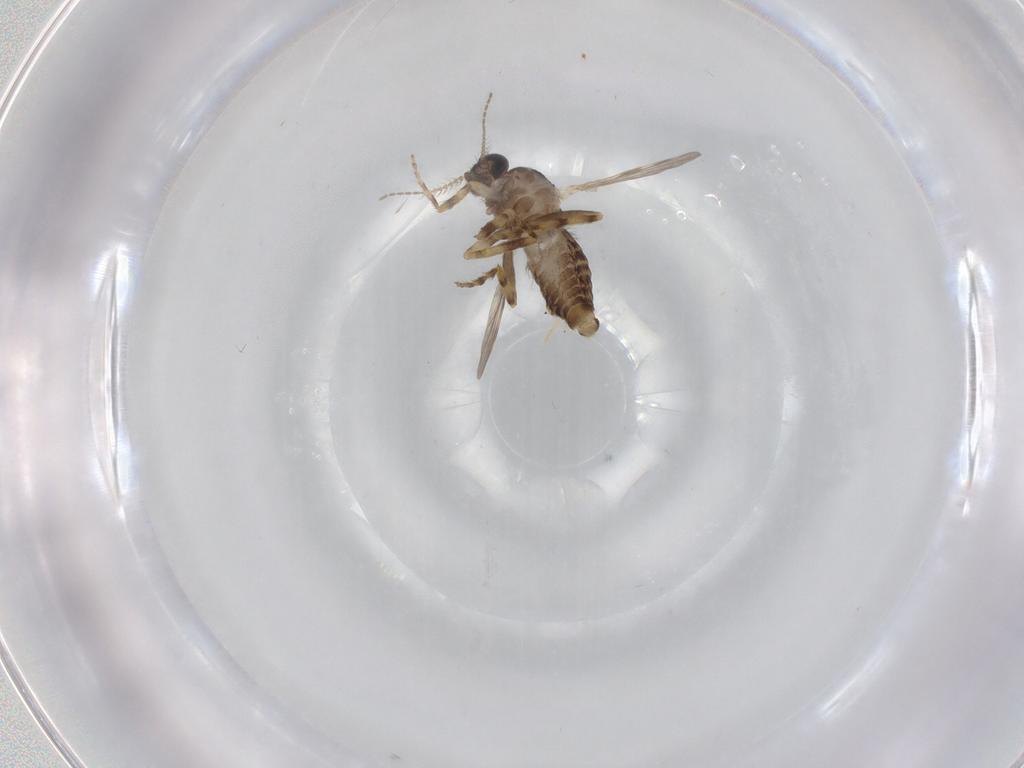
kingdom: Animalia
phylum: Arthropoda
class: Insecta
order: Diptera
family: Ceratopogonidae
